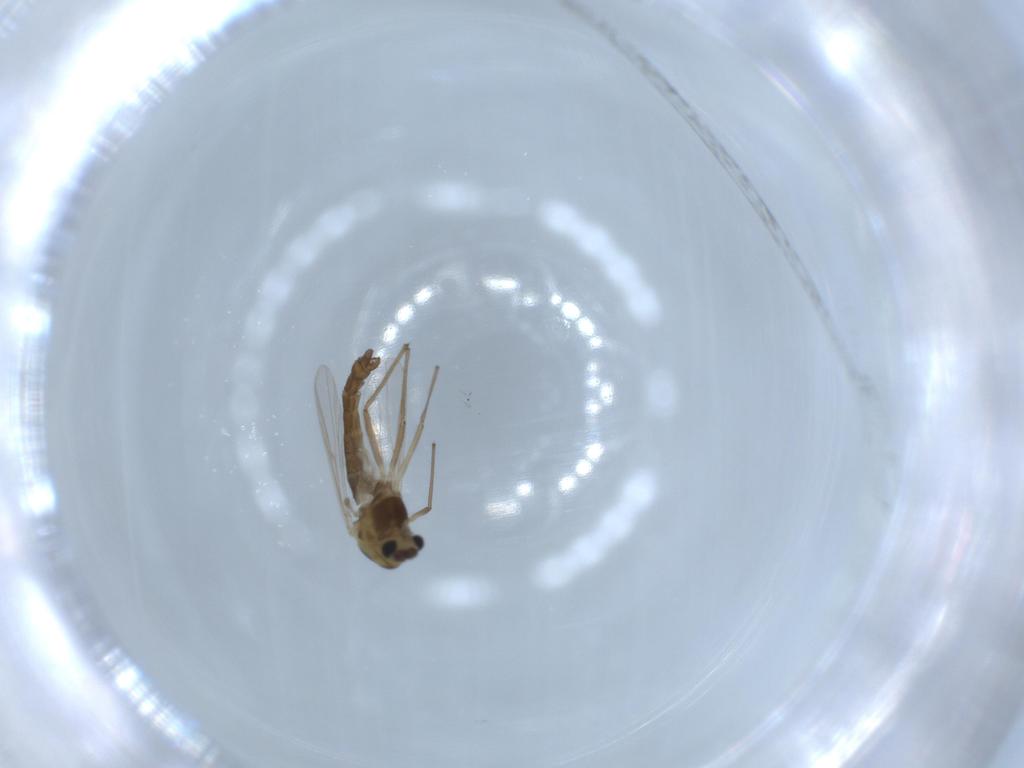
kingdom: Animalia
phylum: Arthropoda
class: Insecta
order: Diptera
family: Chironomidae
